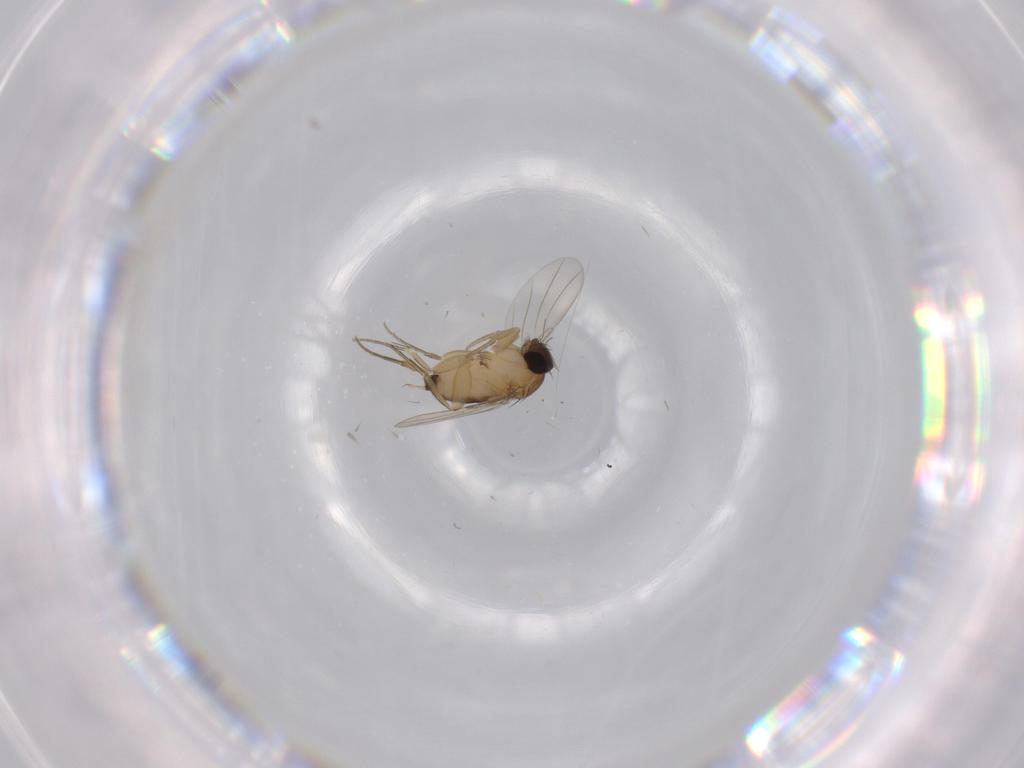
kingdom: Animalia
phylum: Arthropoda
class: Insecta
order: Diptera
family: Phoridae
